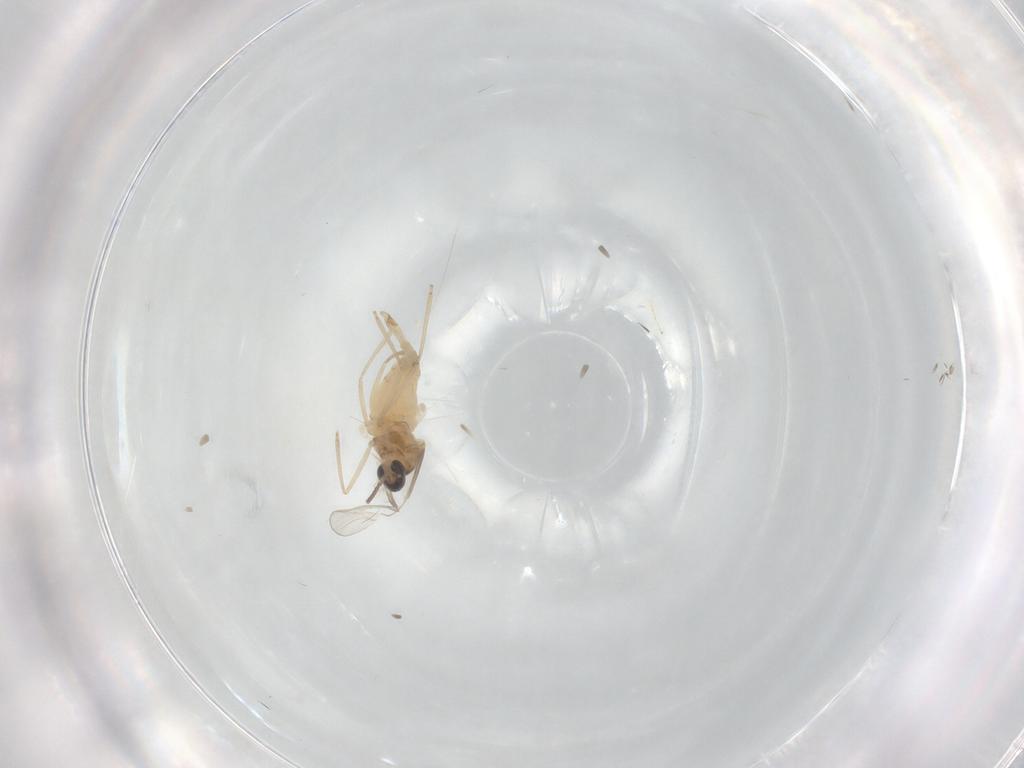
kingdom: Animalia
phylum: Arthropoda
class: Insecta
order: Diptera
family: Cecidomyiidae
